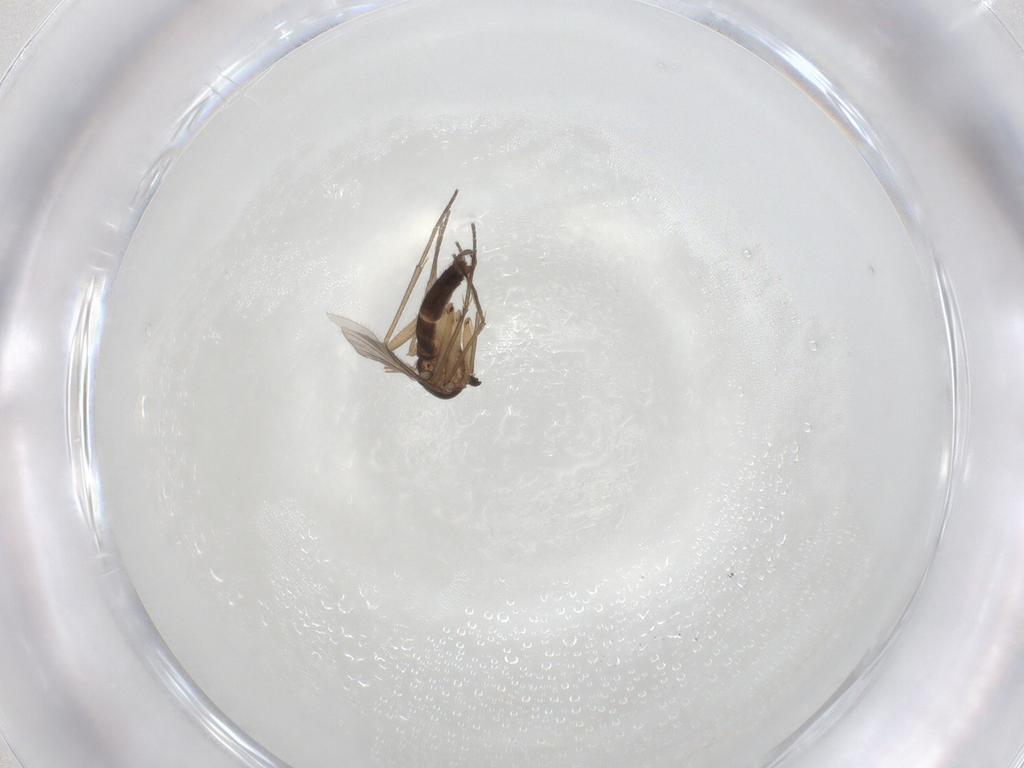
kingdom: Animalia
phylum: Arthropoda
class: Insecta
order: Diptera
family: Sciaridae
